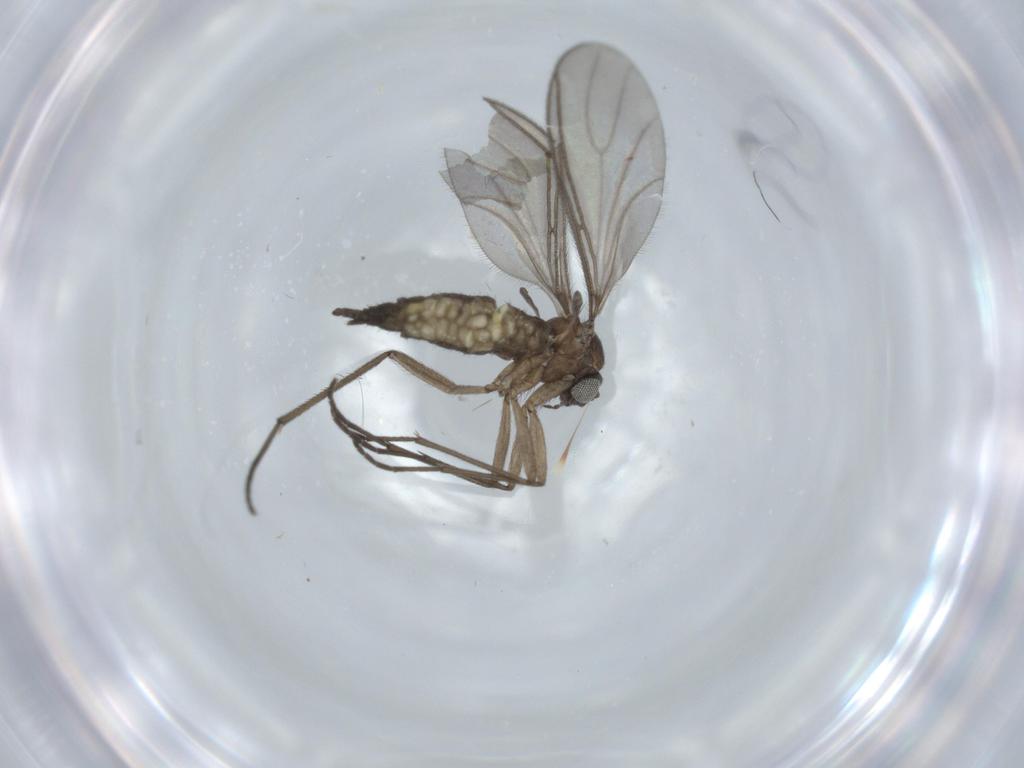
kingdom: Animalia
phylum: Arthropoda
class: Insecta
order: Diptera
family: Sciaridae
